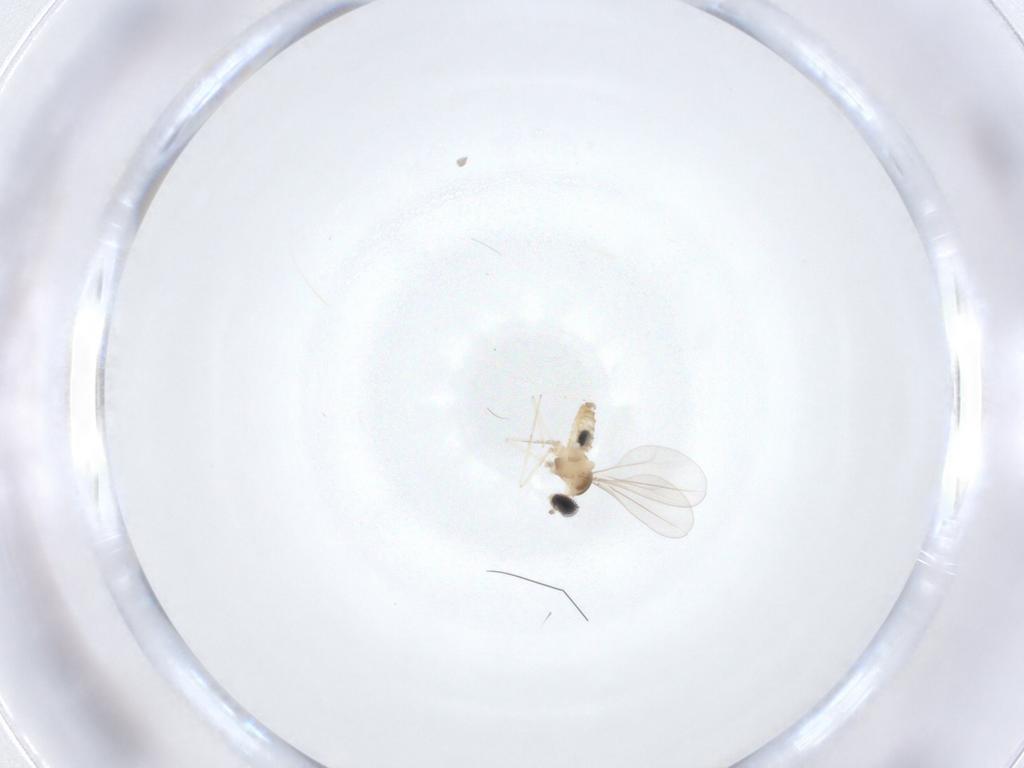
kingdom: Animalia
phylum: Arthropoda
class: Insecta
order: Diptera
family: Cecidomyiidae
